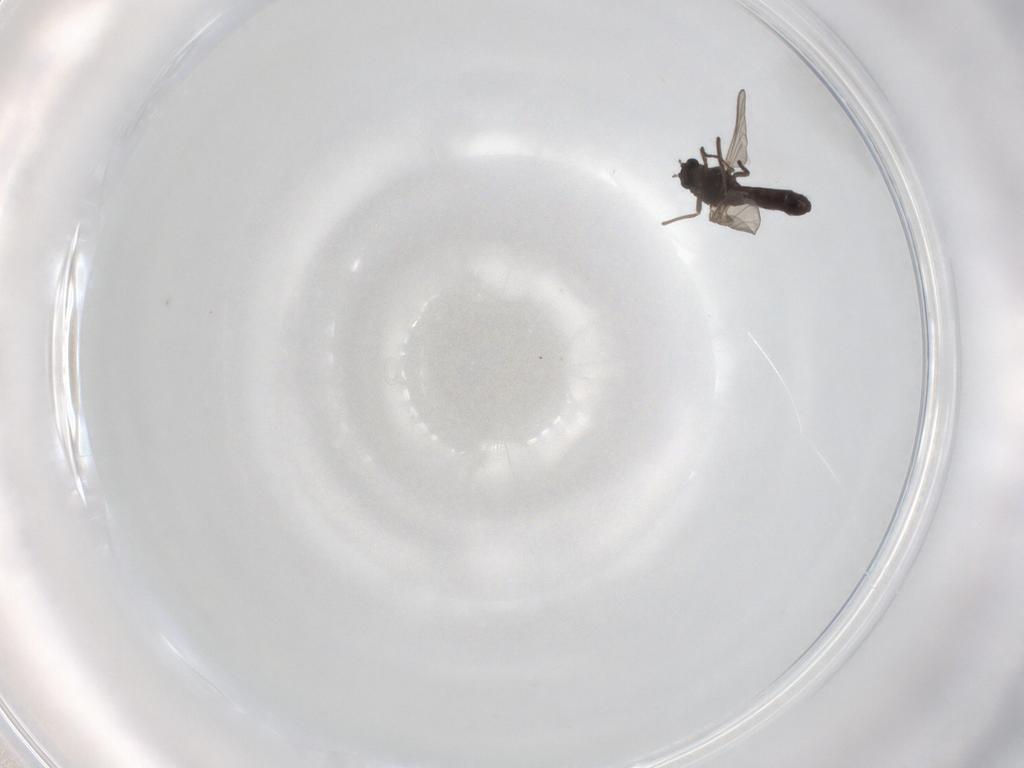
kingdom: Animalia
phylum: Arthropoda
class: Insecta
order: Diptera
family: Chironomidae
